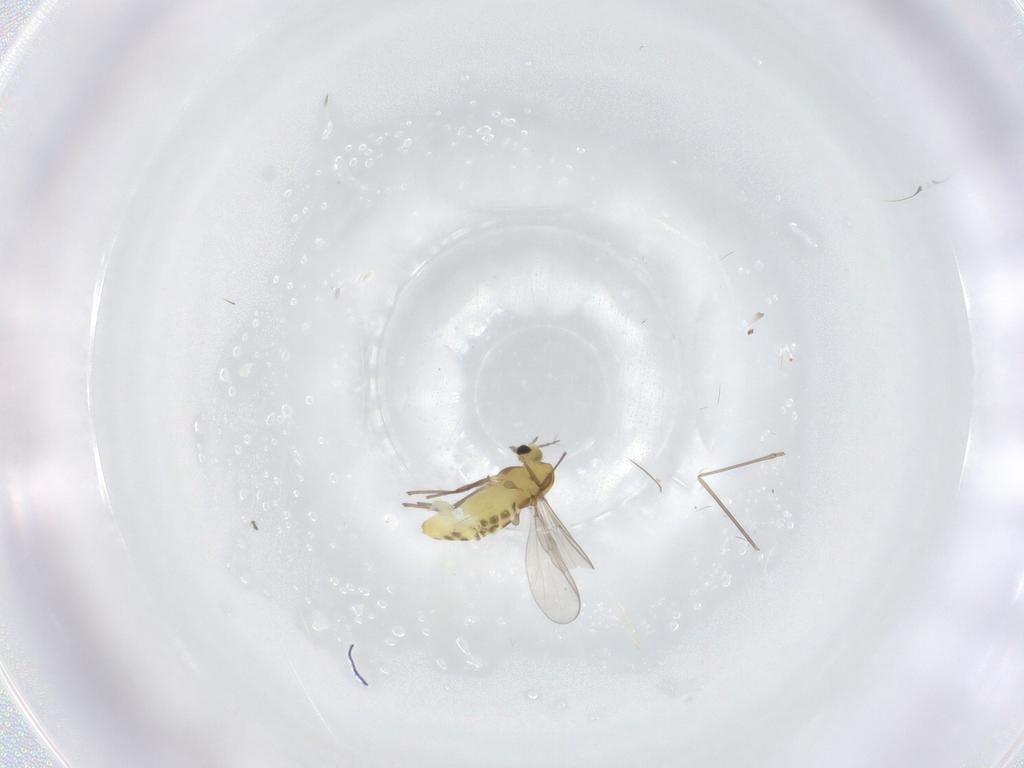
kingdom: Animalia
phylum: Arthropoda
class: Insecta
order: Diptera
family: Chironomidae
